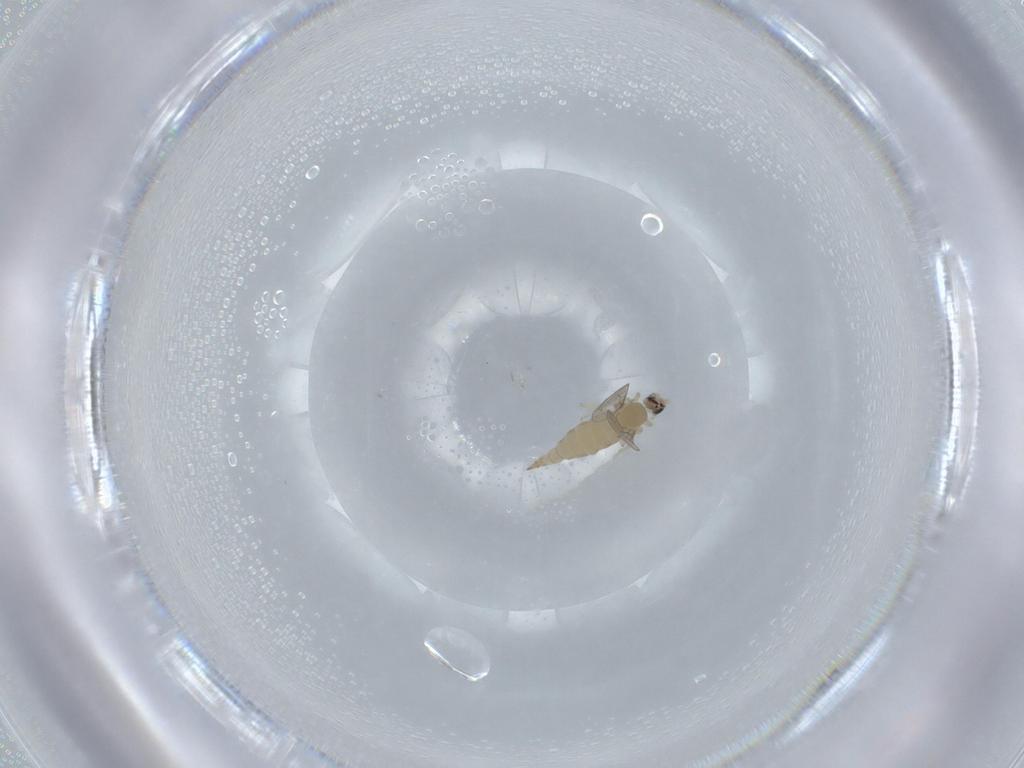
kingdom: Animalia
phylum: Arthropoda
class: Insecta
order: Diptera
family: Cecidomyiidae
